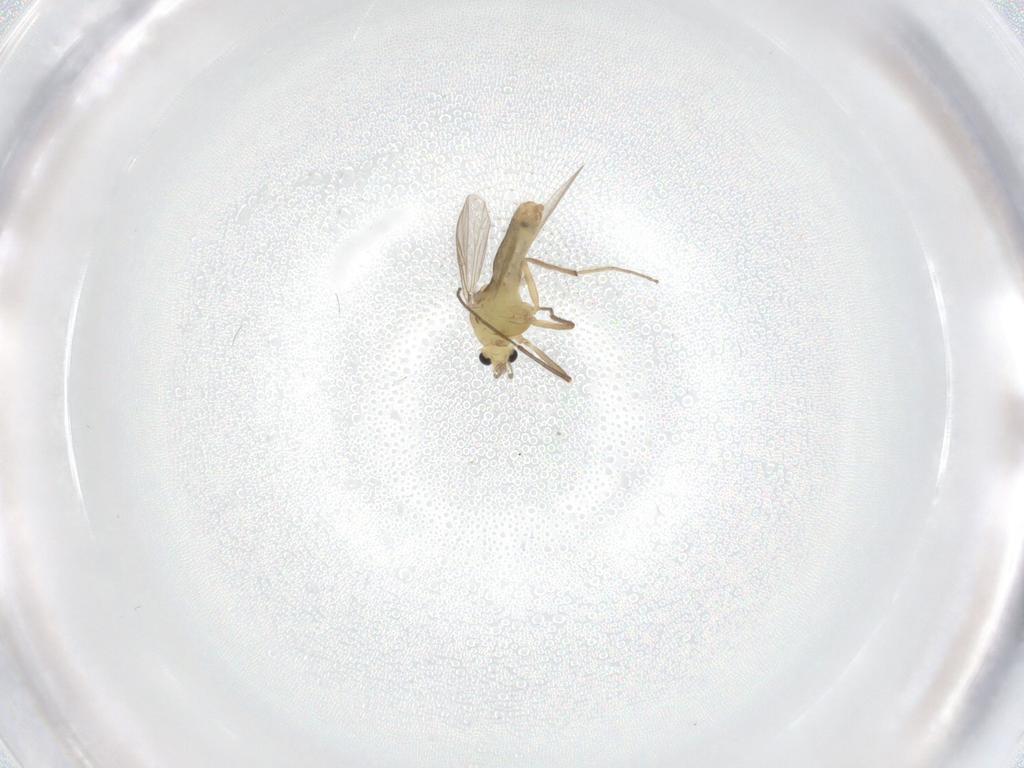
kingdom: Animalia
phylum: Arthropoda
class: Insecta
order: Diptera
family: Chironomidae
